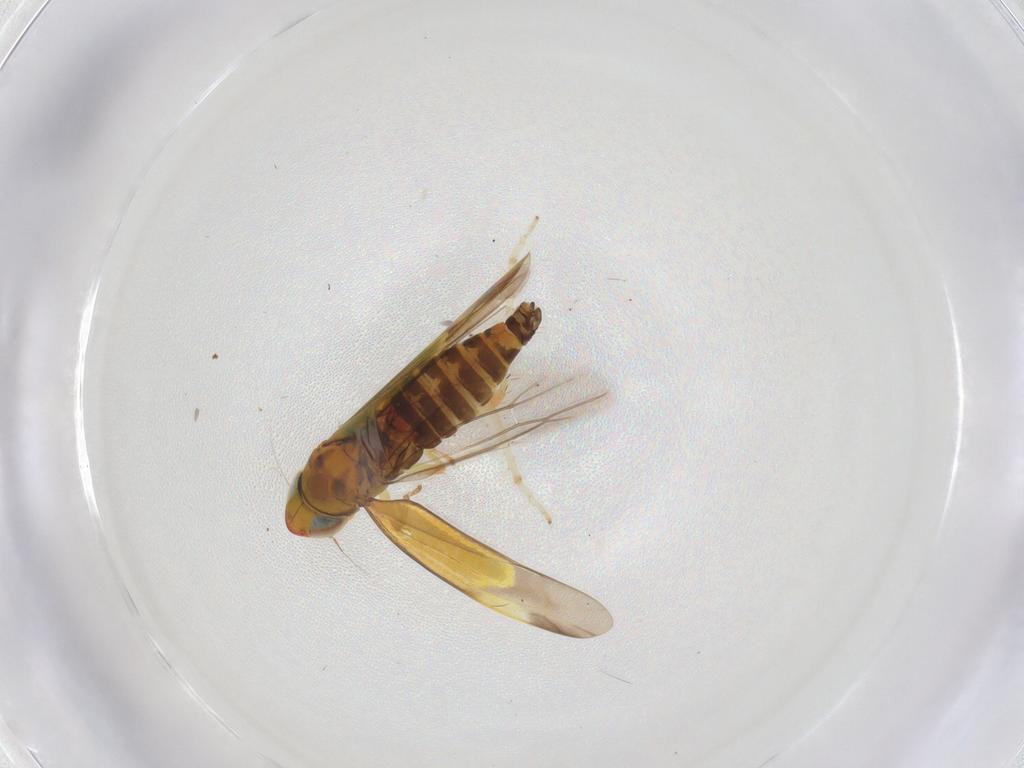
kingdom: Animalia
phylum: Arthropoda
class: Insecta
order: Hemiptera
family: Cicadellidae
